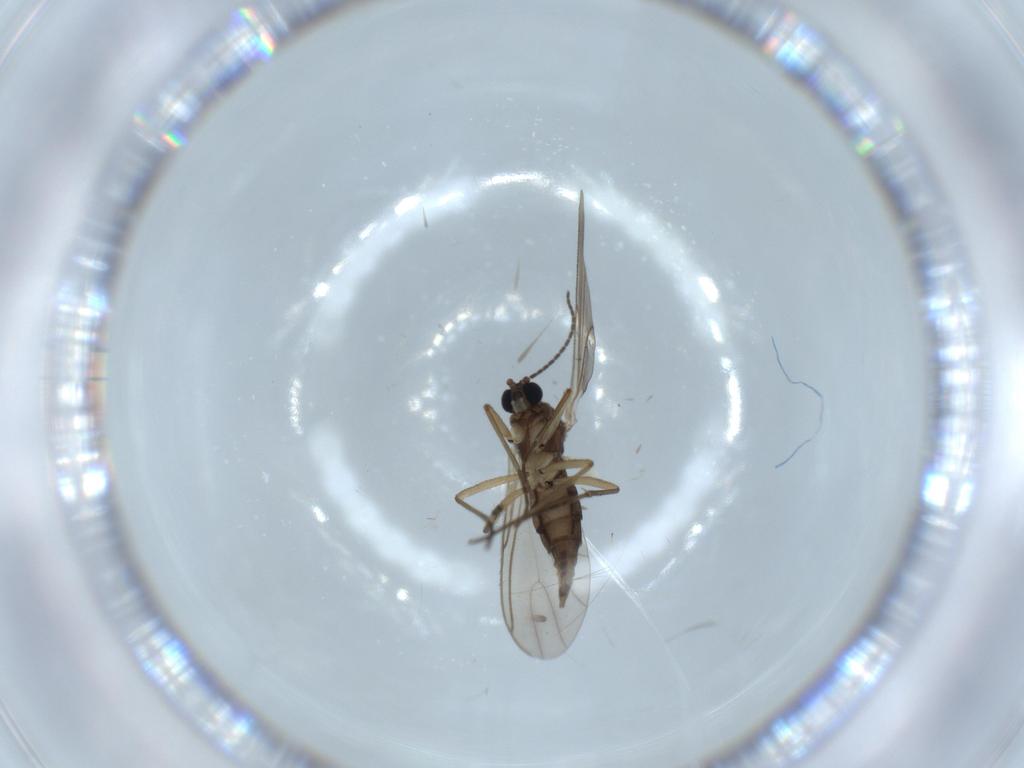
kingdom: Animalia
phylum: Arthropoda
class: Insecta
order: Diptera
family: Sciaridae
